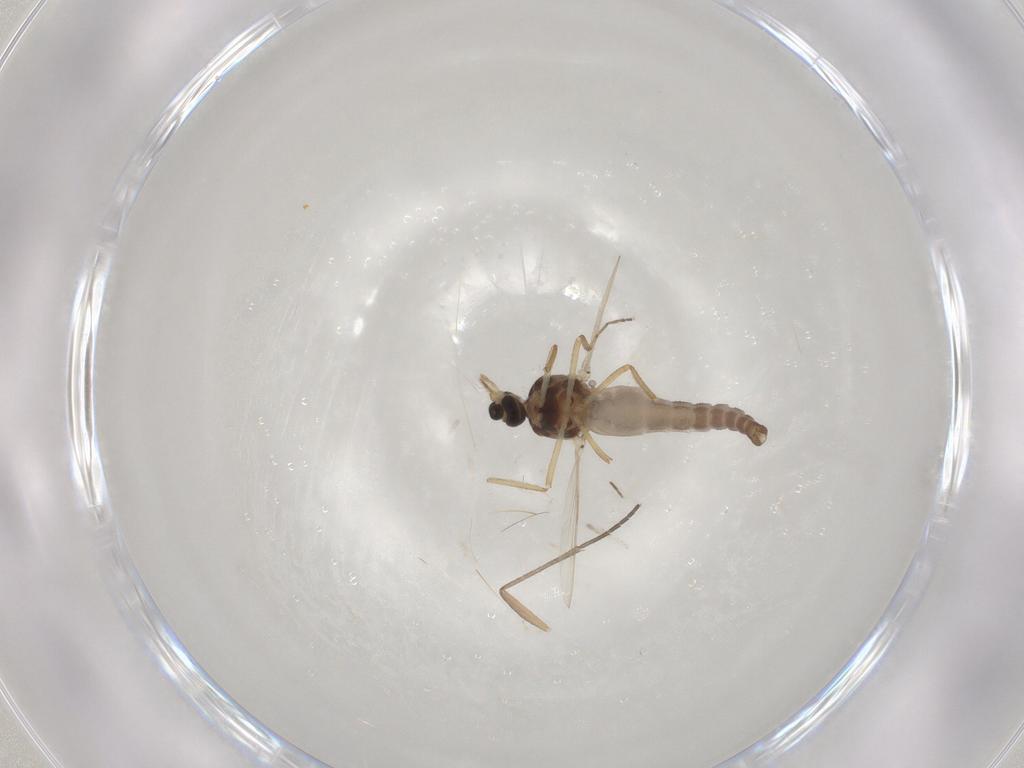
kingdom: Animalia
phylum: Arthropoda
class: Insecta
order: Diptera
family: Ceratopogonidae
